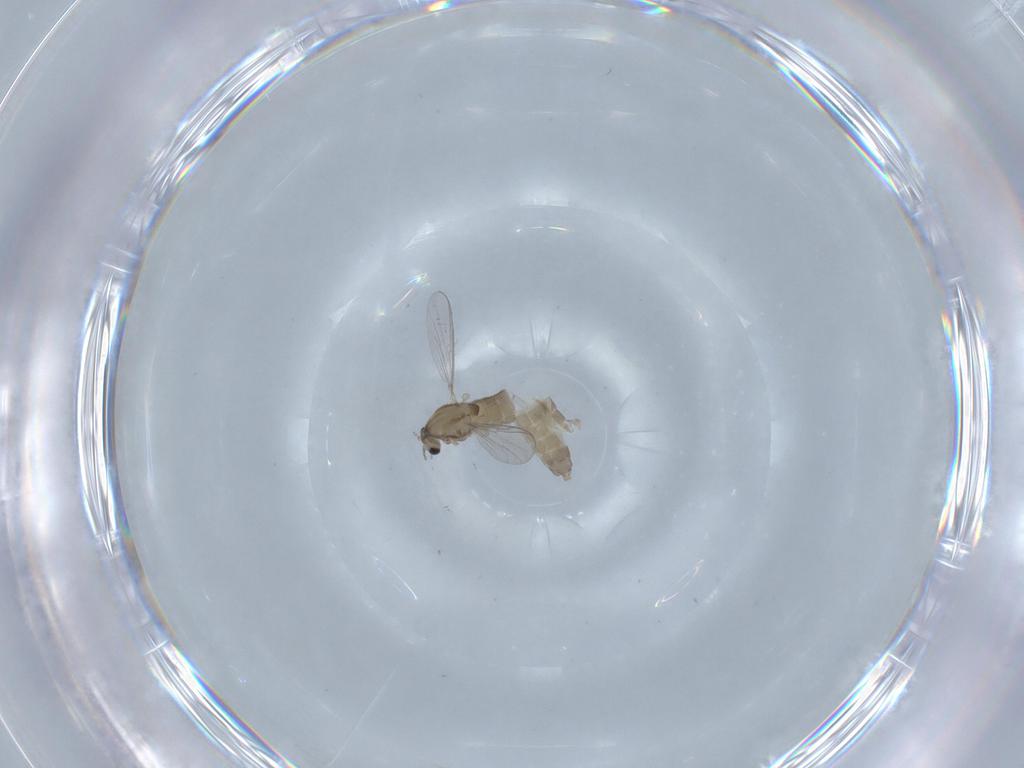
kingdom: Animalia
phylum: Arthropoda
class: Insecta
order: Diptera
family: Chironomidae
